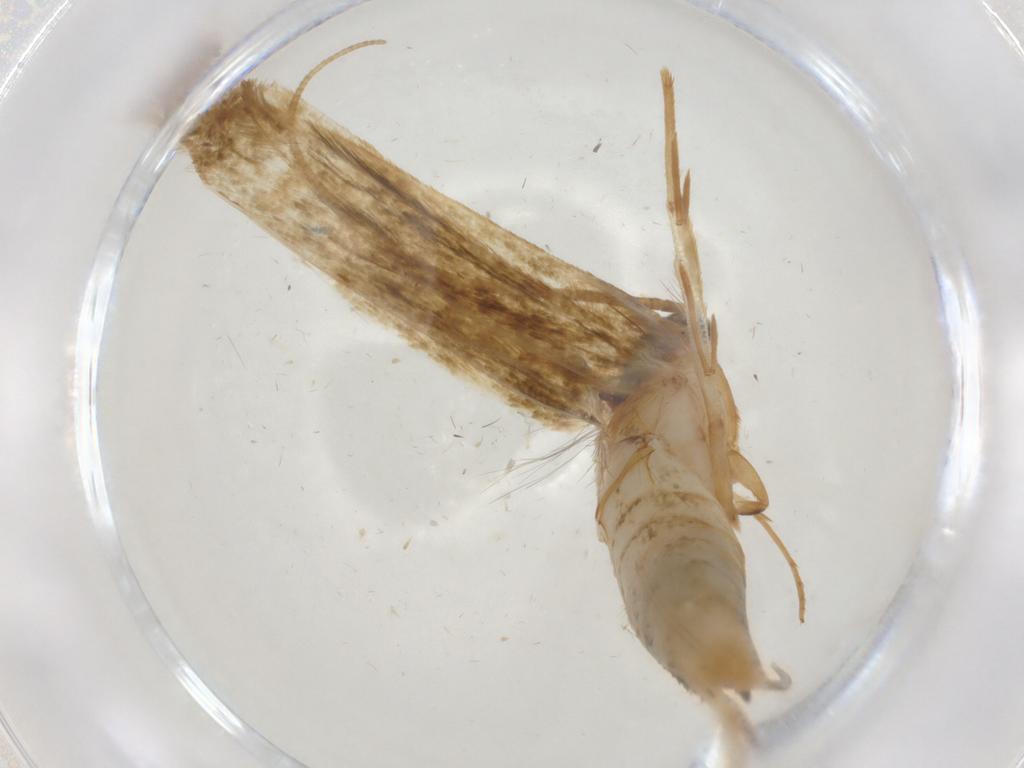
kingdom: Animalia
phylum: Arthropoda
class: Insecta
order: Lepidoptera
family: Tineidae
